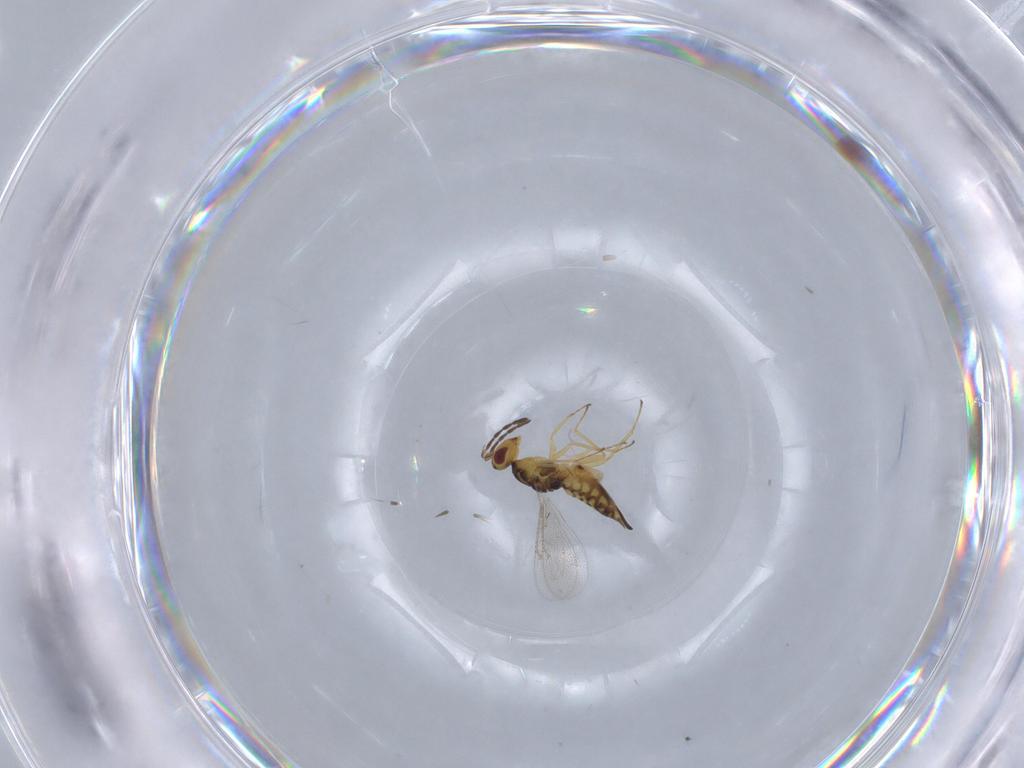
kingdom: Animalia
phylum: Arthropoda
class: Insecta
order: Hymenoptera
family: Eulophidae
